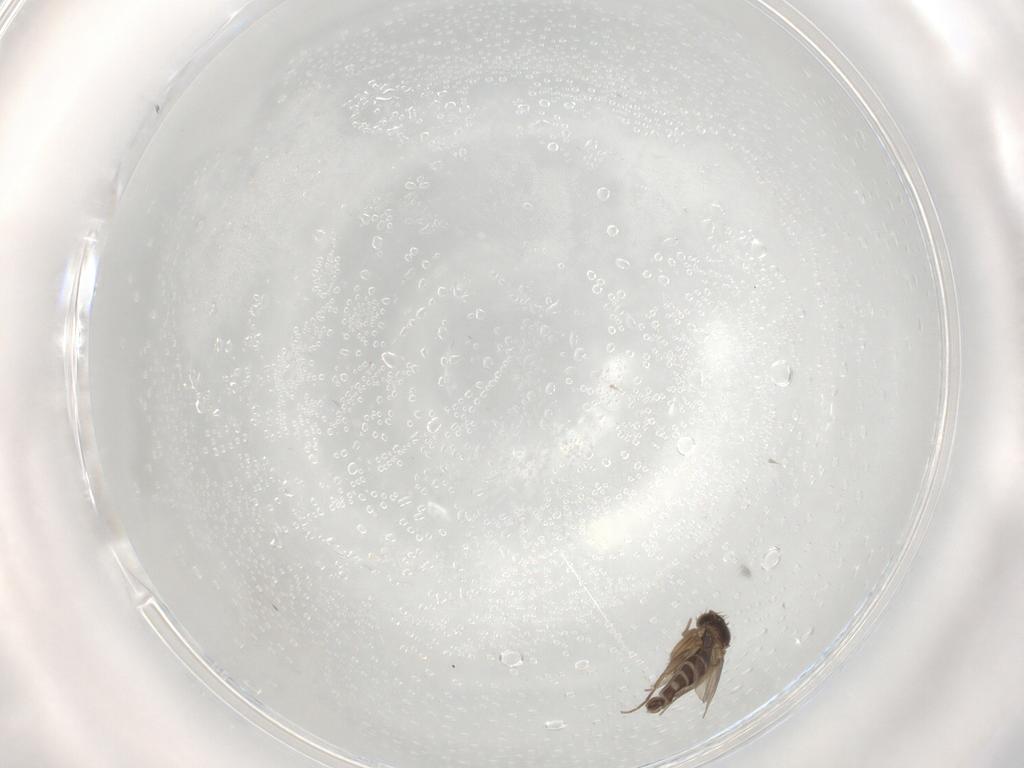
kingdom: Animalia
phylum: Arthropoda
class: Insecta
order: Diptera
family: Phoridae
